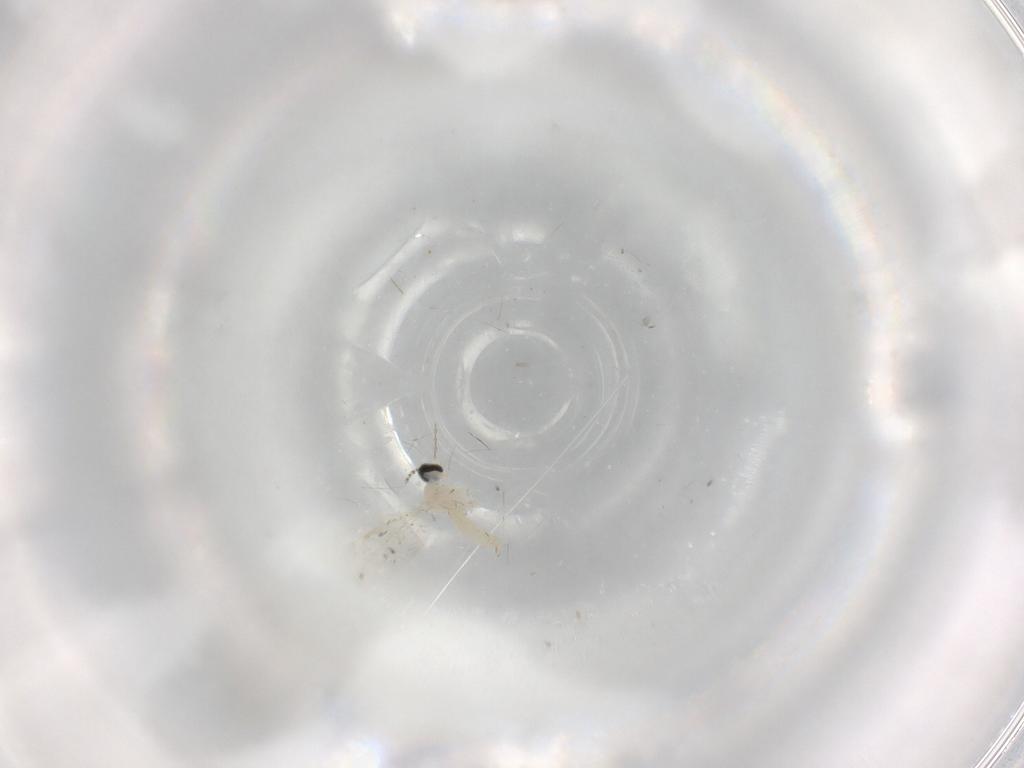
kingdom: Animalia
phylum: Arthropoda
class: Insecta
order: Diptera
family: Cecidomyiidae
